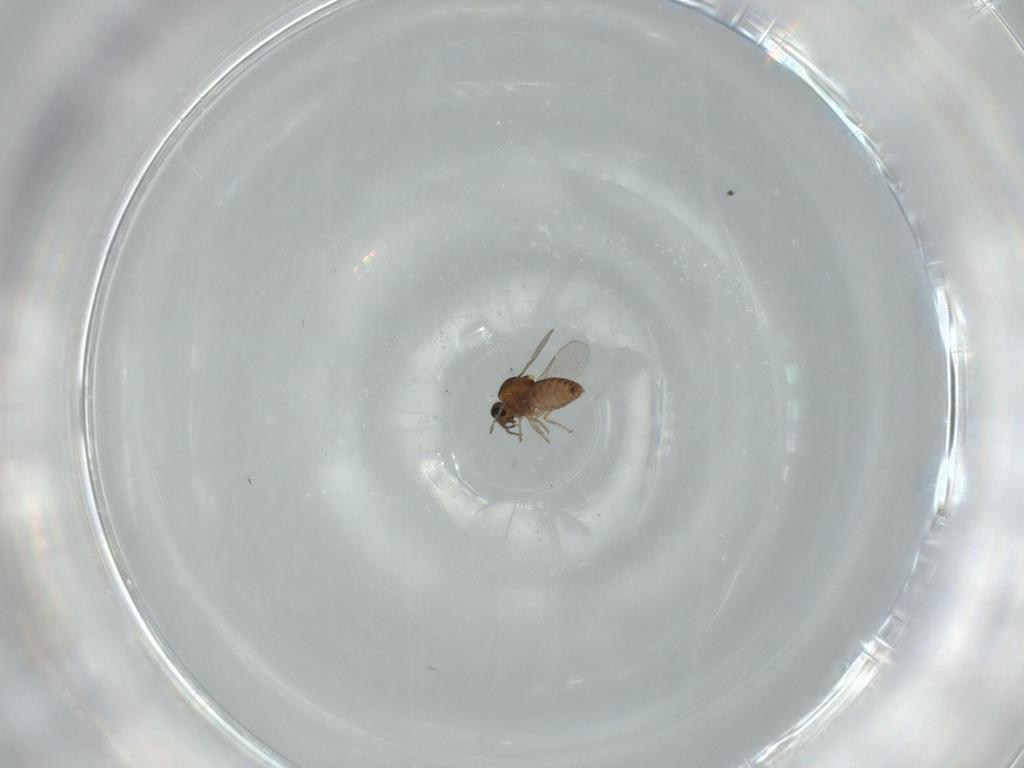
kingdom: Animalia
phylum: Arthropoda
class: Insecta
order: Diptera
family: Ceratopogonidae
